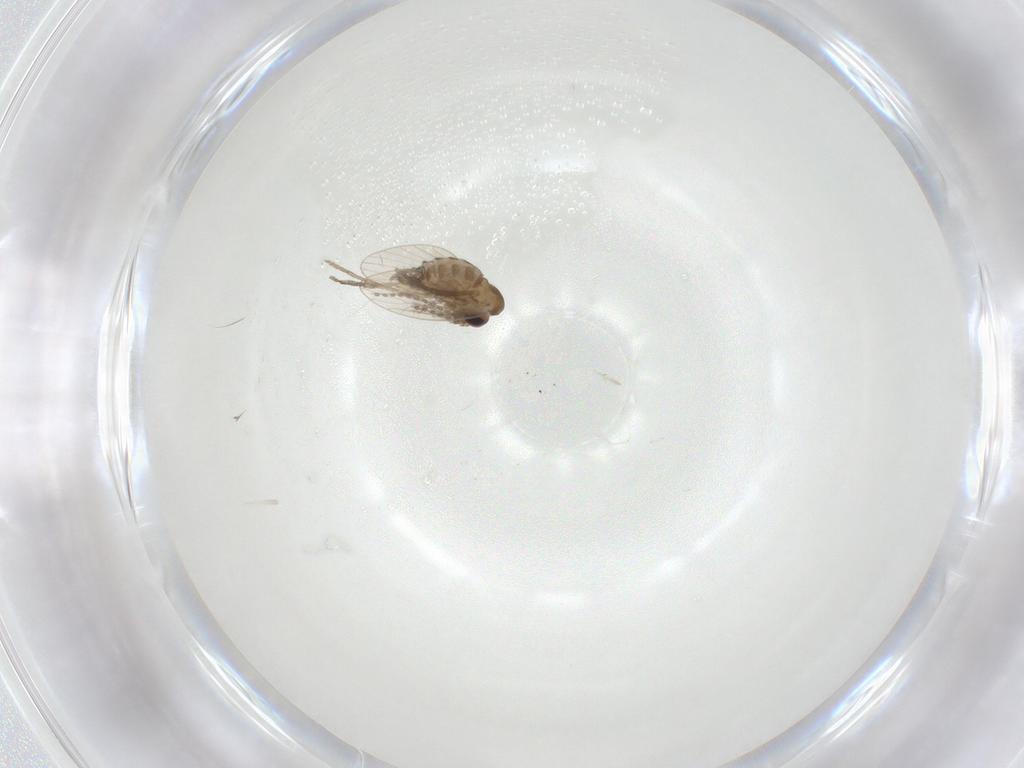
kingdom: Animalia
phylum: Arthropoda
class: Insecta
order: Diptera
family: Psychodidae
